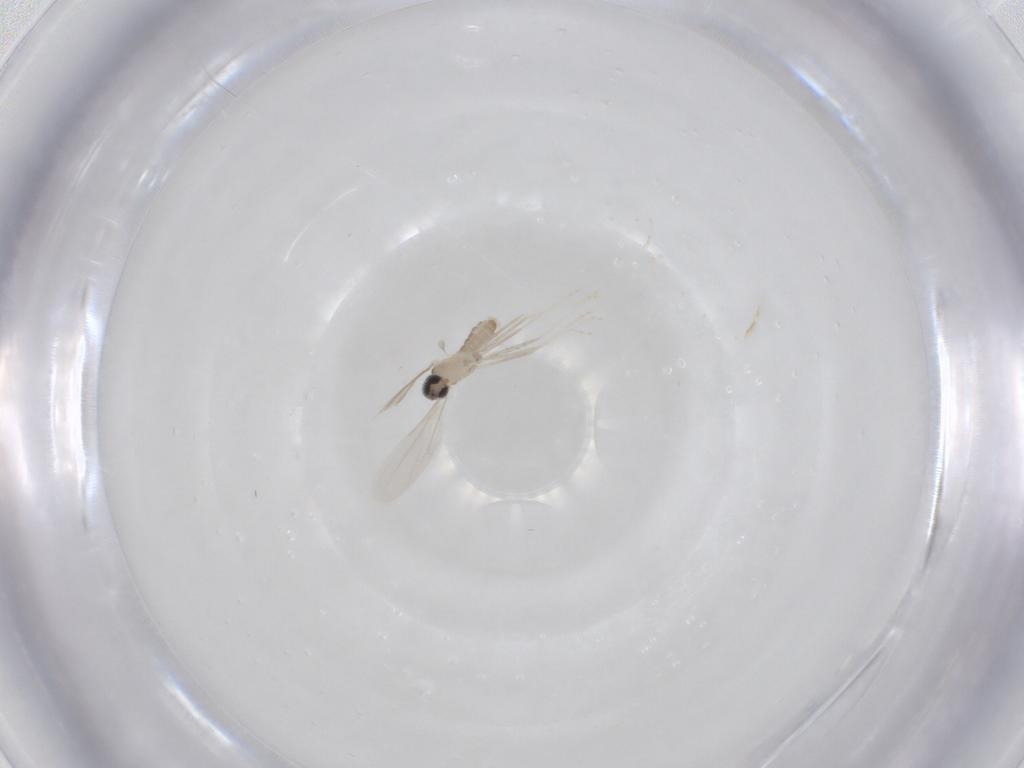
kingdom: Animalia
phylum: Arthropoda
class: Insecta
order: Diptera
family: Cecidomyiidae
